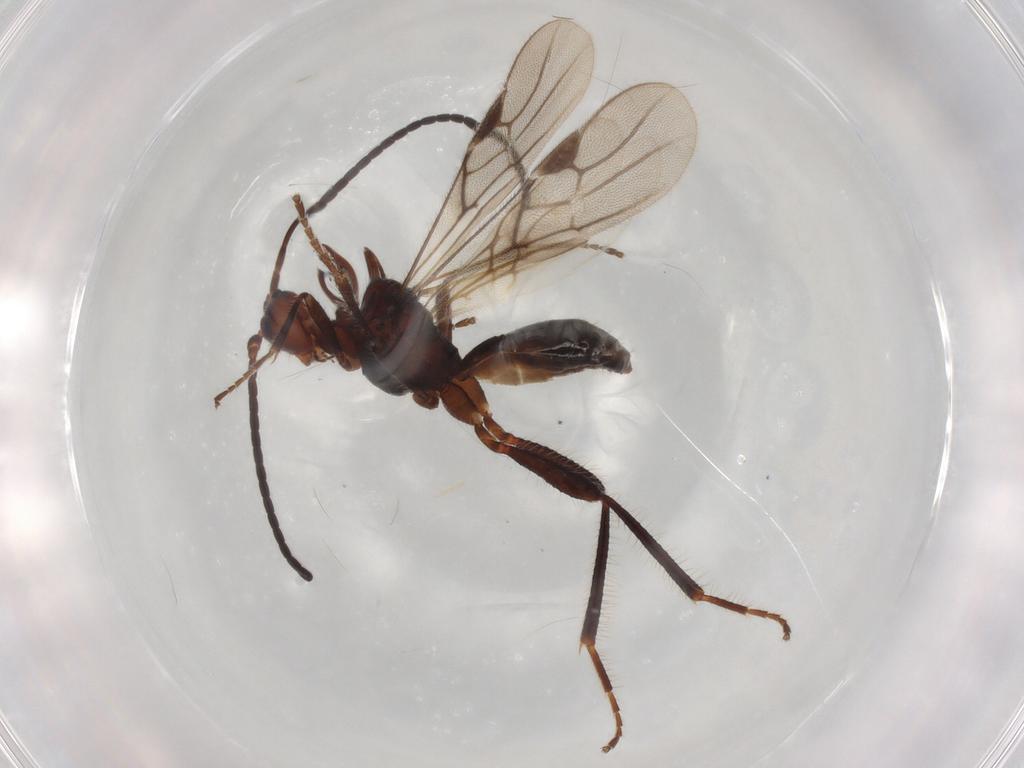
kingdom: Animalia
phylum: Arthropoda
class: Insecta
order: Hymenoptera
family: Braconidae
